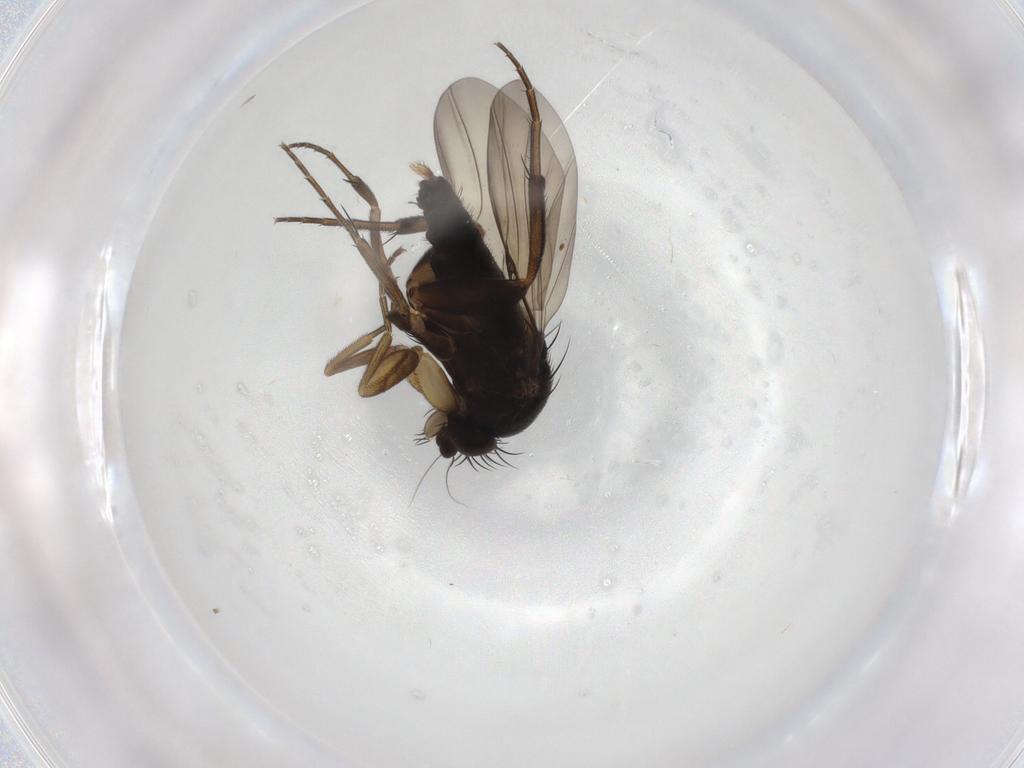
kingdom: Animalia
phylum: Arthropoda
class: Insecta
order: Diptera
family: Phoridae
